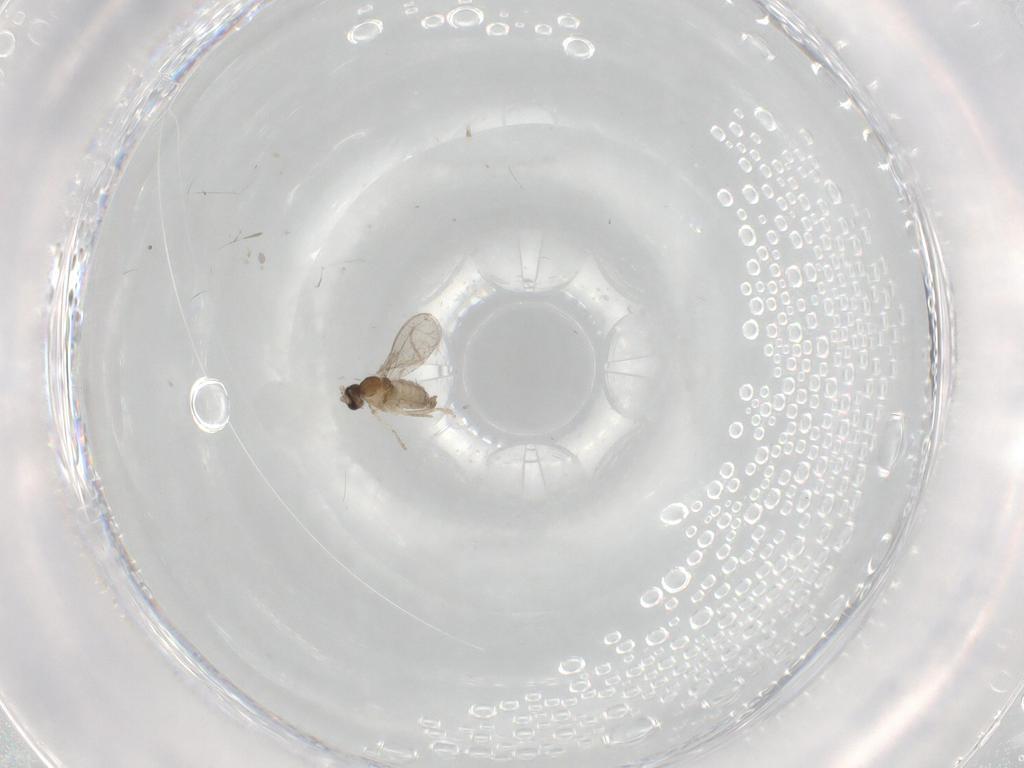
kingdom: Animalia
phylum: Arthropoda
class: Insecta
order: Diptera
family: Cecidomyiidae
